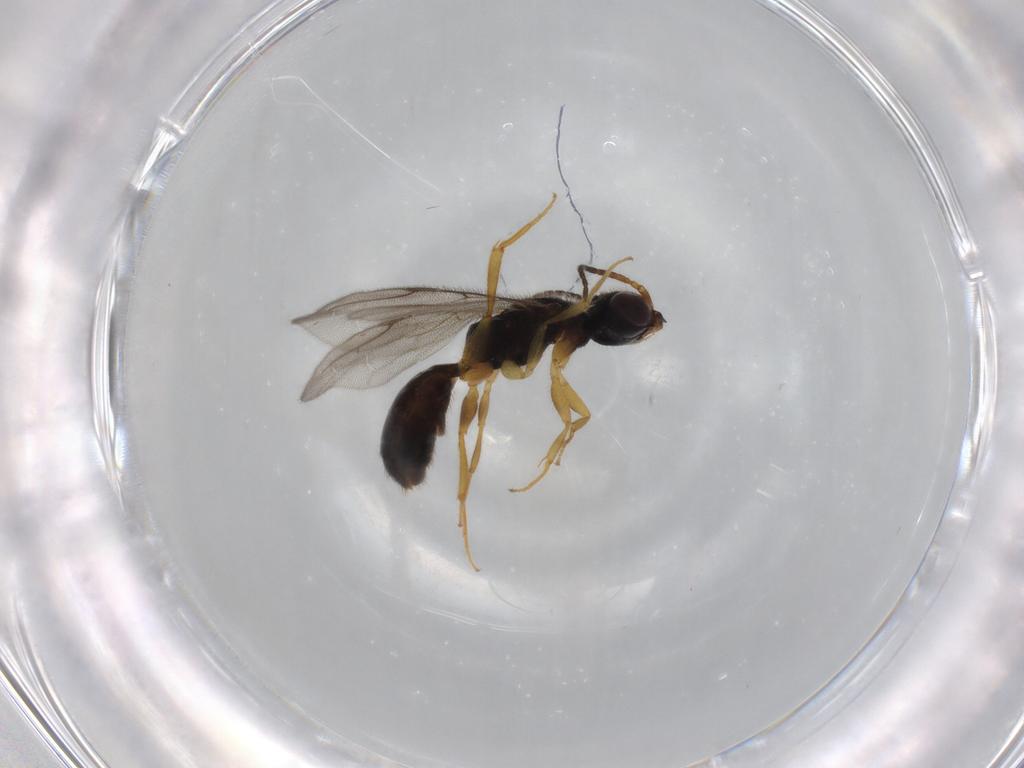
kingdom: Animalia
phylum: Arthropoda
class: Insecta
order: Hymenoptera
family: Bethylidae
